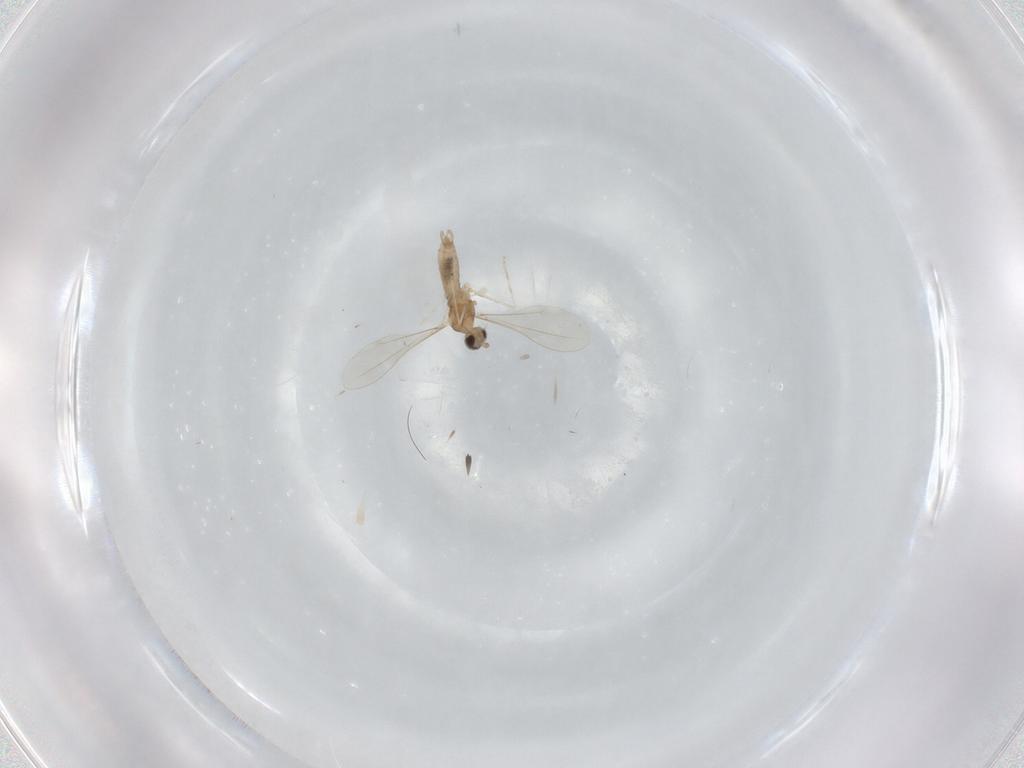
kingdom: Animalia
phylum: Arthropoda
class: Insecta
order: Diptera
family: Cecidomyiidae
